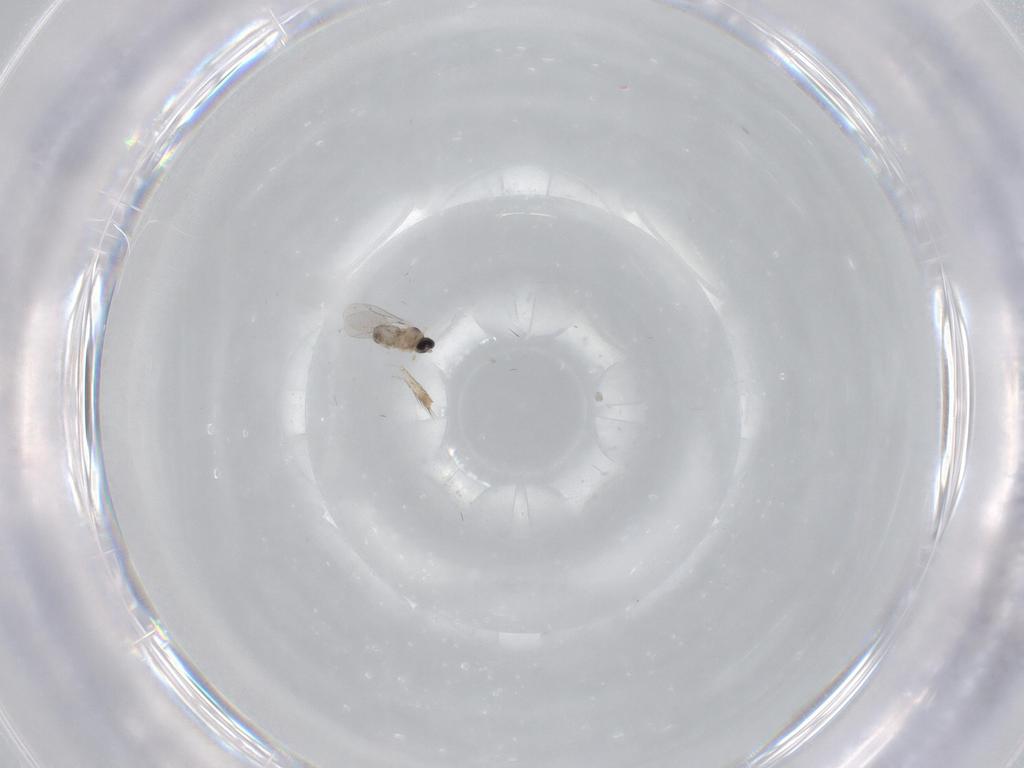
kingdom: Animalia
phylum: Arthropoda
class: Insecta
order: Diptera
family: Cecidomyiidae
